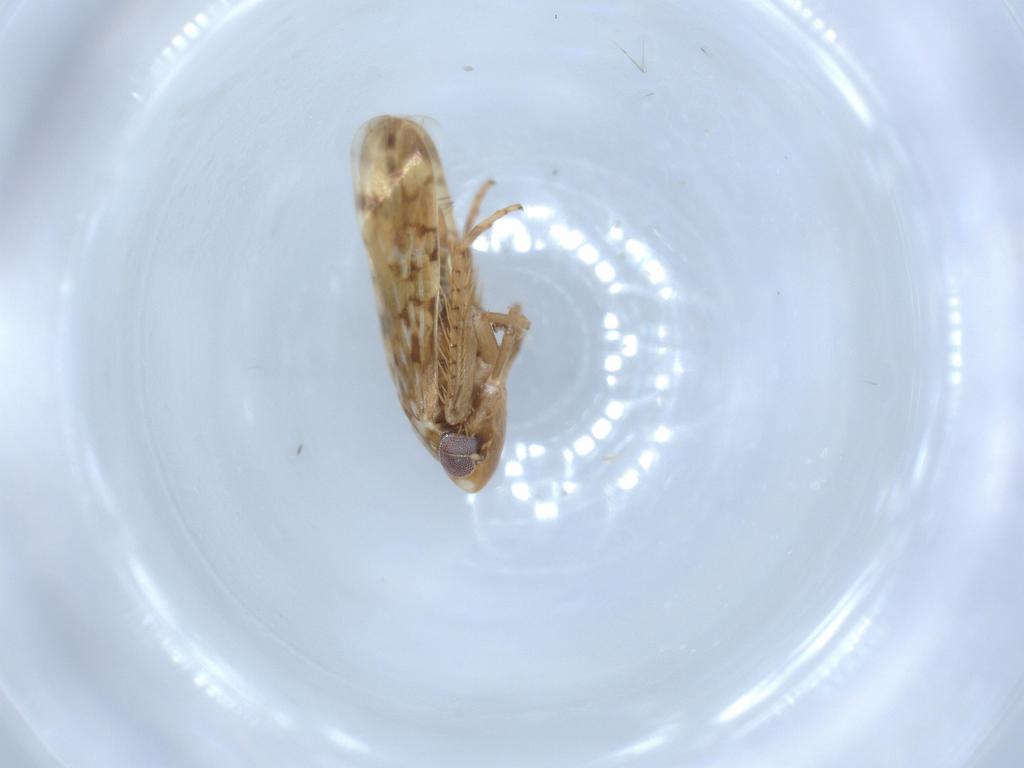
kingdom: Animalia
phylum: Arthropoda
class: Insecta
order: Hemiptera
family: Cicadellidae
